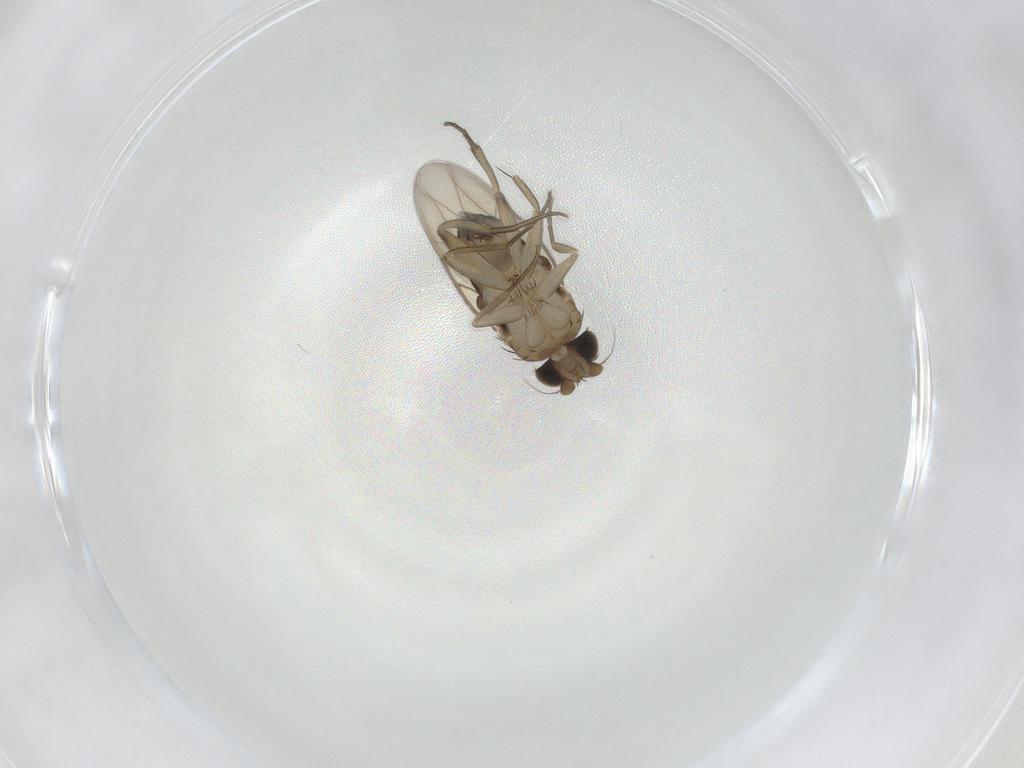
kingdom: Animalia
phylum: Arthropoda
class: Insecta
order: Diptera
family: Phoridae
